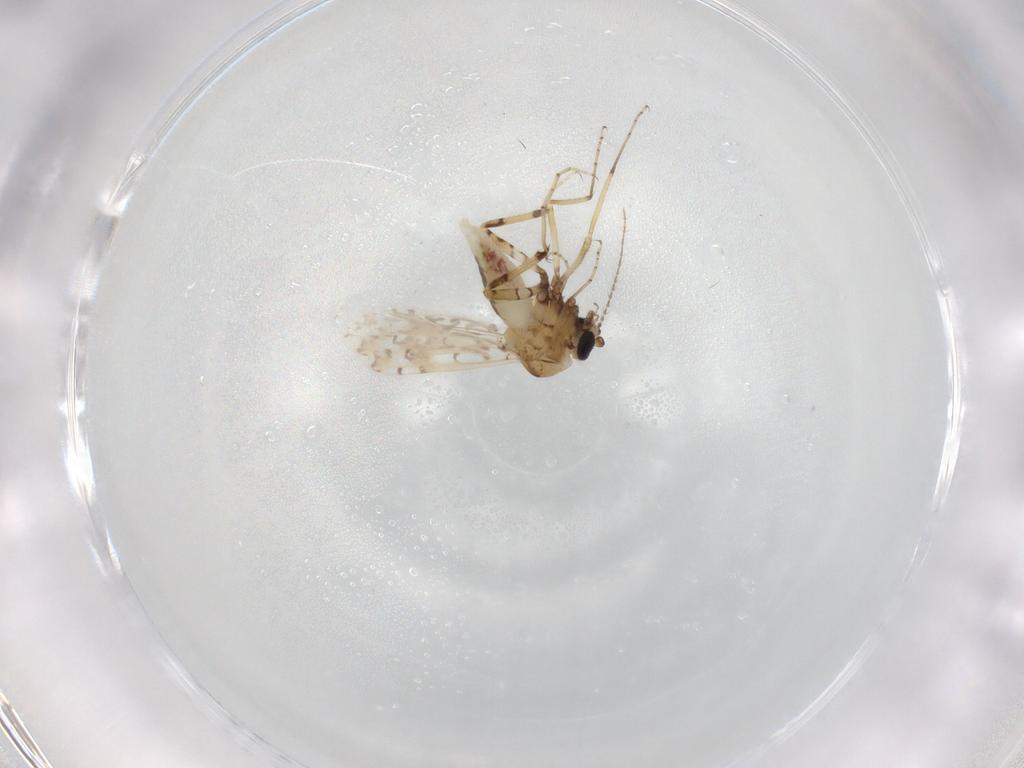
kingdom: Animalia
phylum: Arthropoda
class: Insecta
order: Diptera
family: Ceratopogonidae
